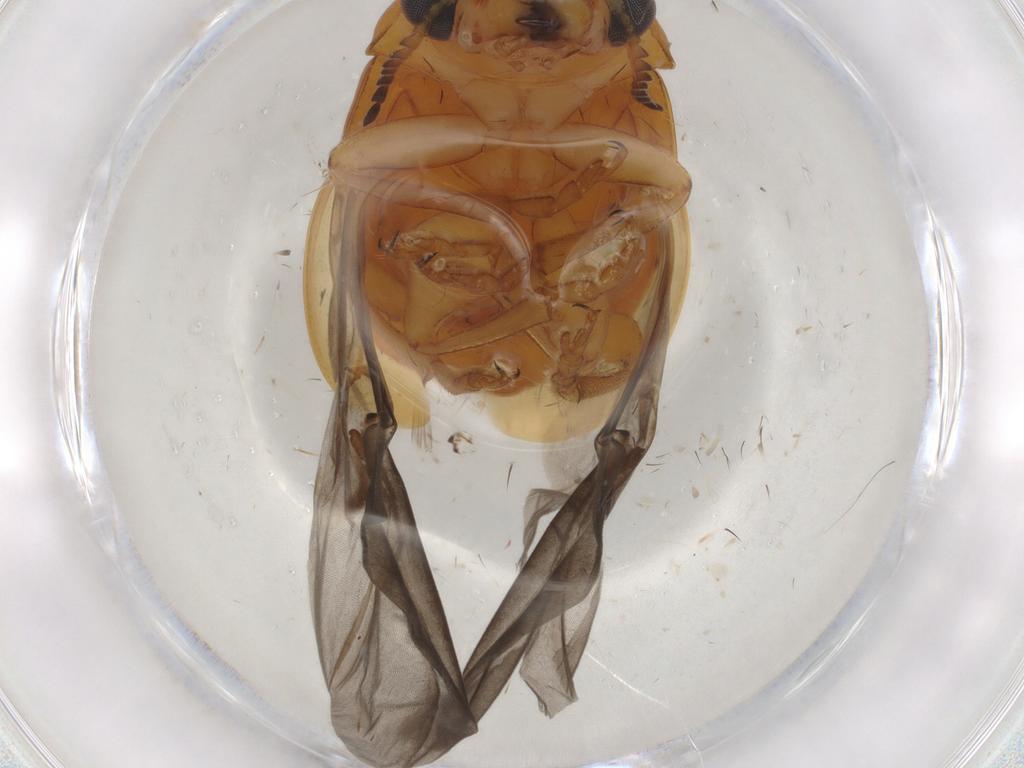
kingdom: Animalia
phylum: Arthropoda
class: Insecta
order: Coleoptera
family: Chrysomelidae
